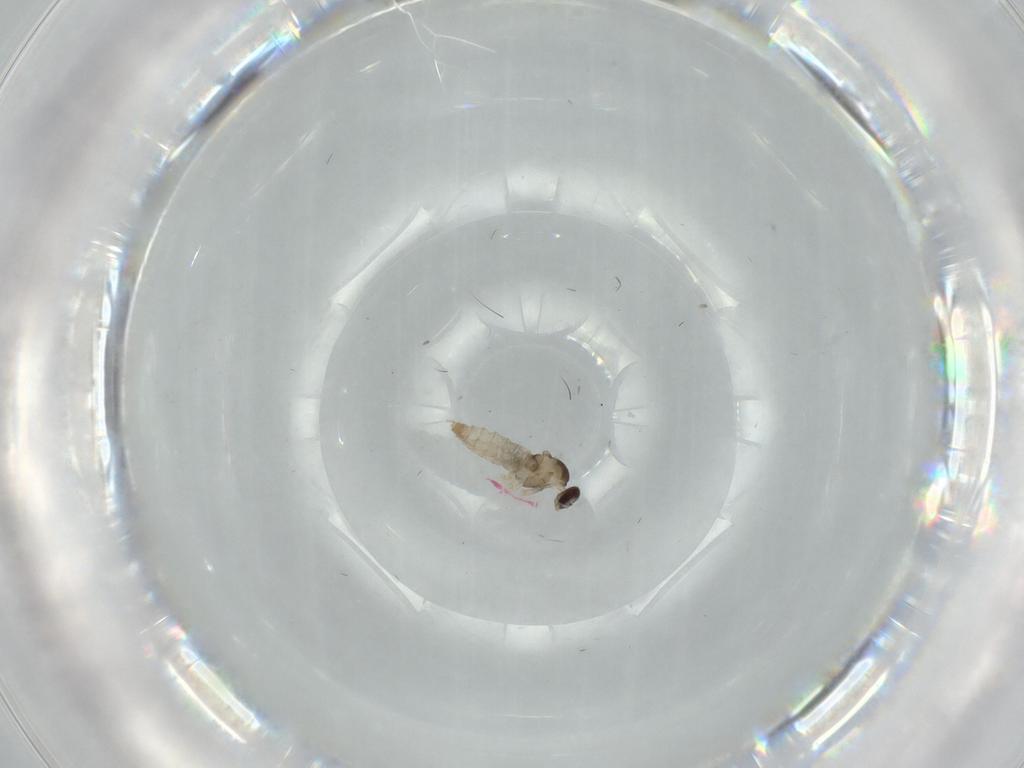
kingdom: Animalia
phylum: Arthropoda
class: Insecta
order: Diptera
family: Cecidomyiidae
